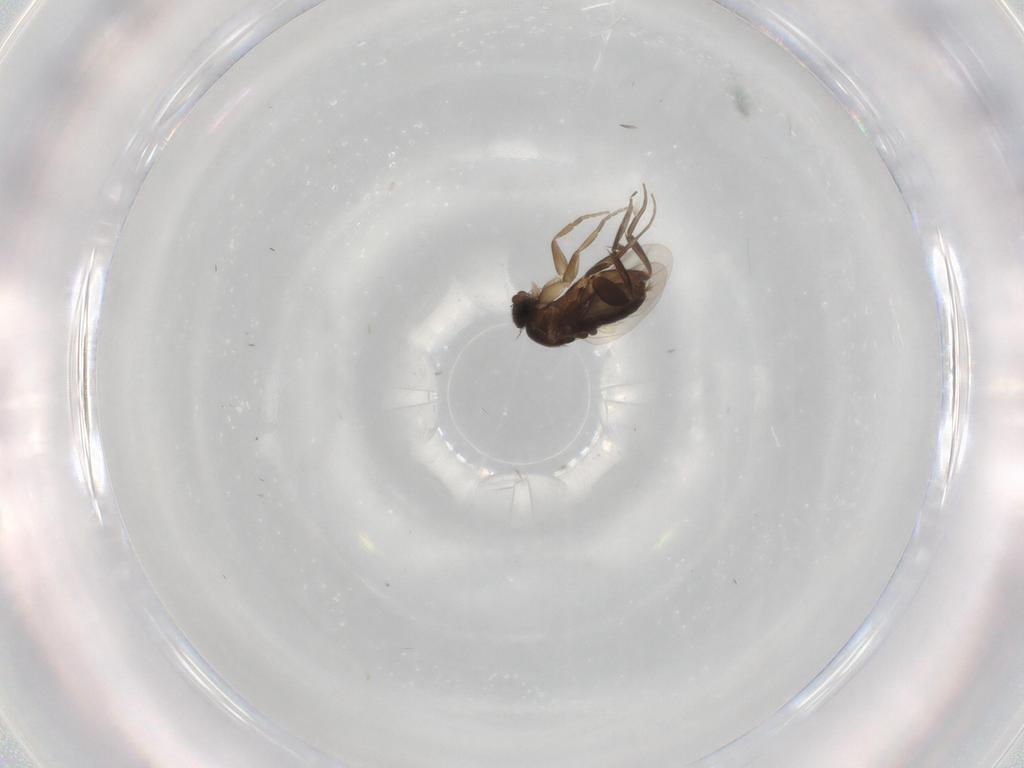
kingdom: Animalia
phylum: Arthropoda
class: Insecta
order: Diptera
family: Phoridae
